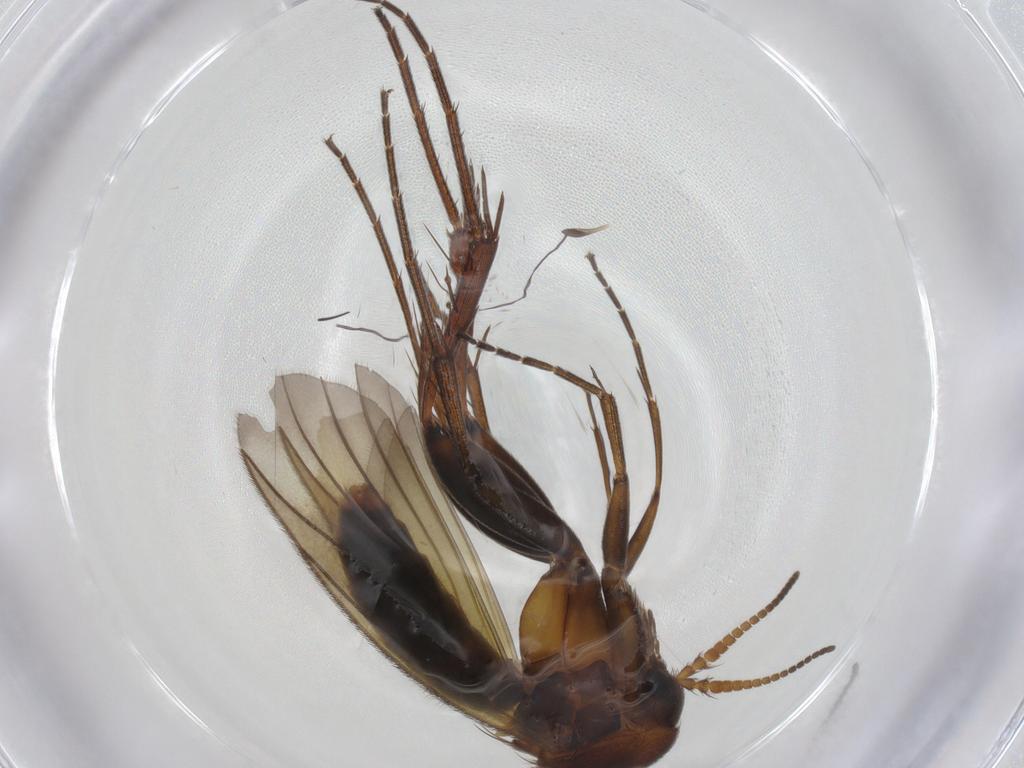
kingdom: Animalia
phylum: Arthropoda
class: Insecta
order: Diptera
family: Sciaridae
